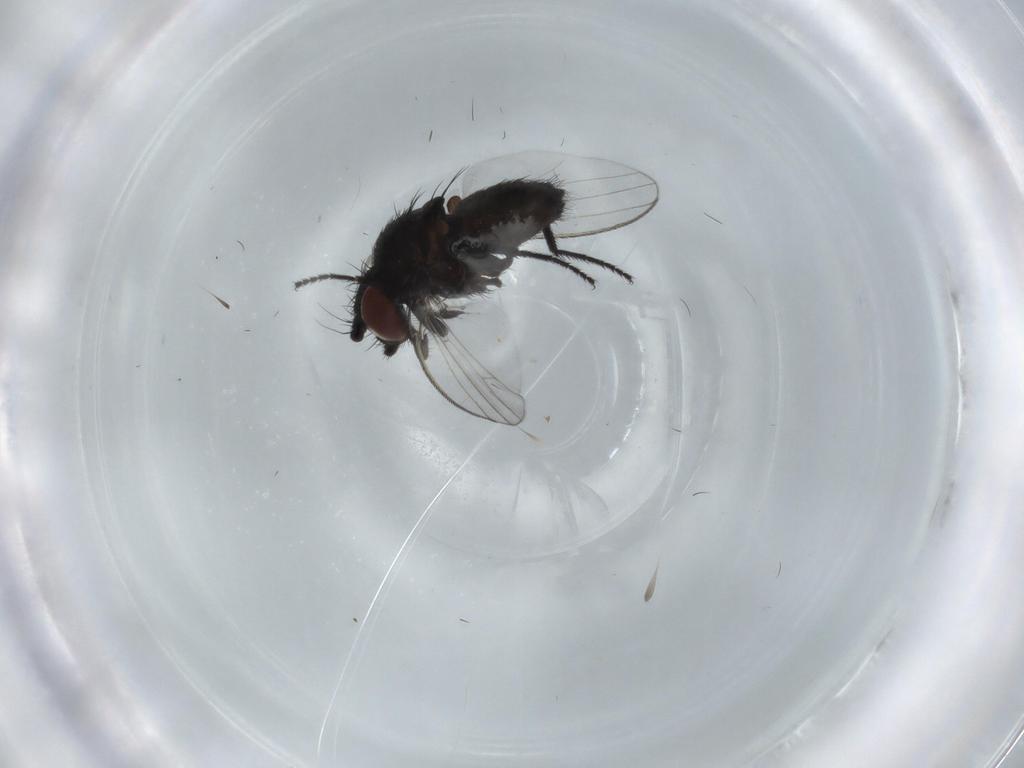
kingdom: Animalia
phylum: Arthropoda
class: Insecta
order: Diptera
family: Milichiidae
